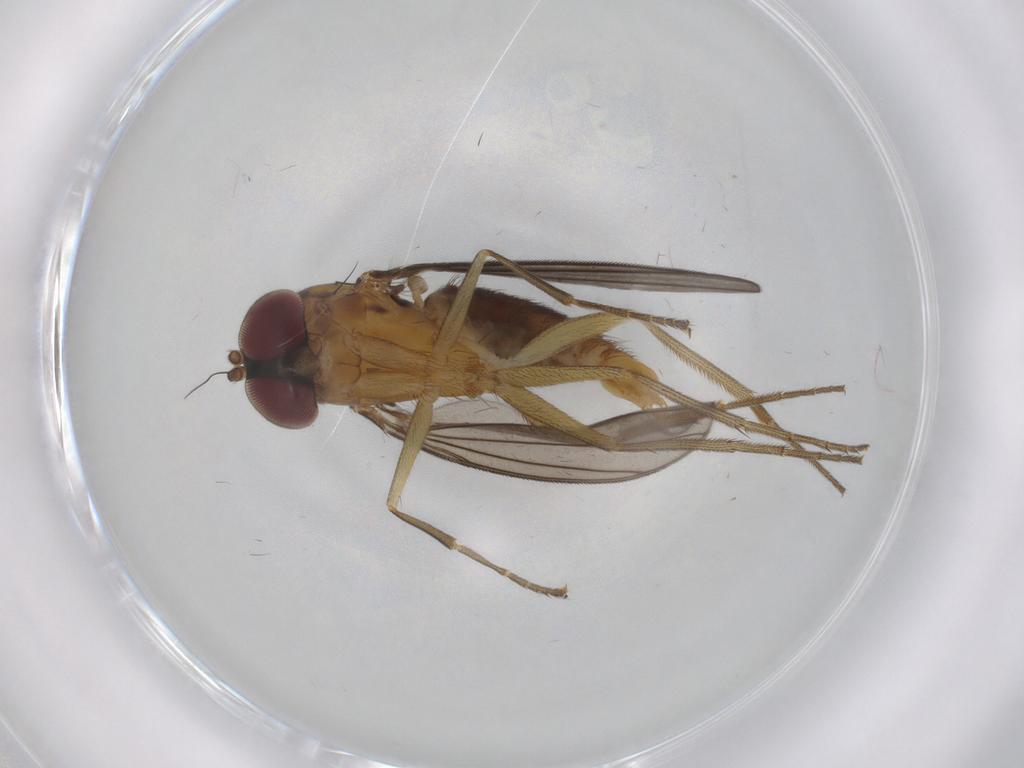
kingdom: Animalia
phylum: Arthropoda
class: Insecta
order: Diptera
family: Dolichopodidae
